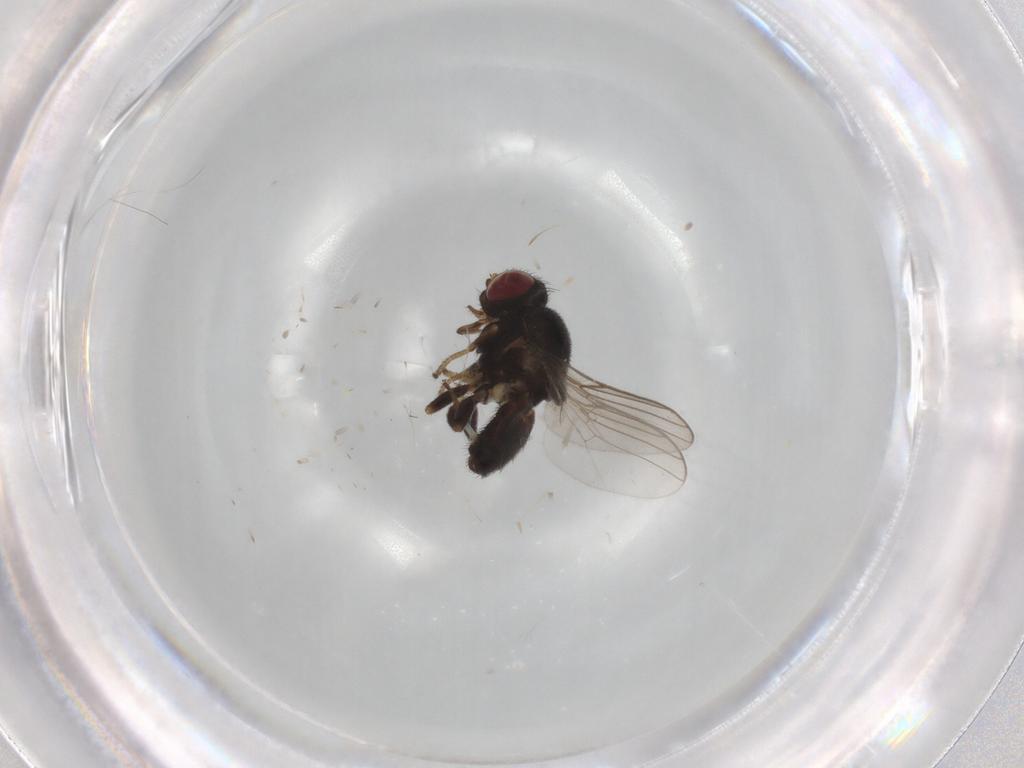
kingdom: Animalia
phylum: Arthropoda
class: Insecta
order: Diptera
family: Chloropidae
